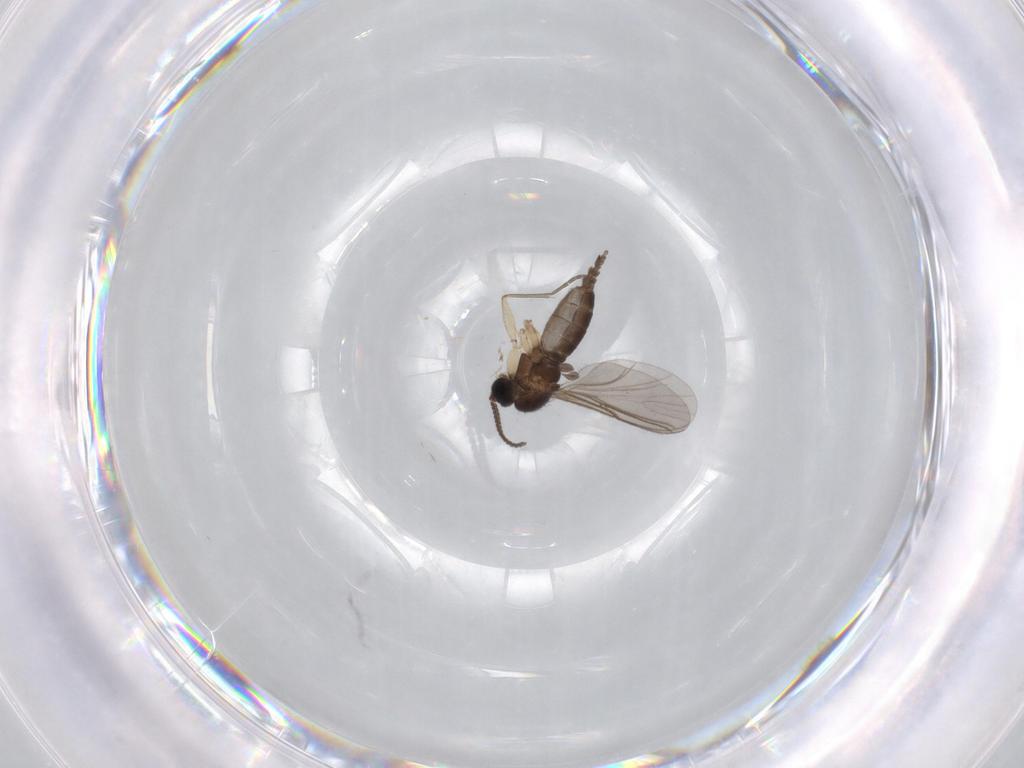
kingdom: Animalia
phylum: Arthropoda
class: Insecta
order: Diptera
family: Sciaridae
